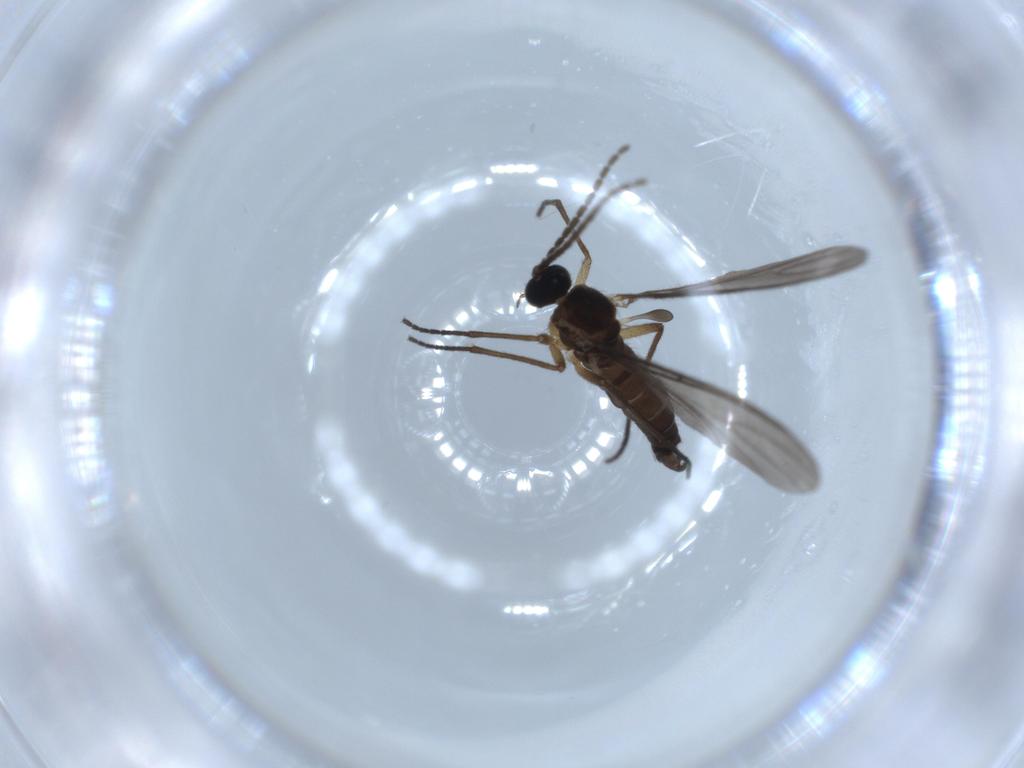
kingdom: Animalia
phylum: Arthropoda
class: Insecta
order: Diptera
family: Sciaridae
